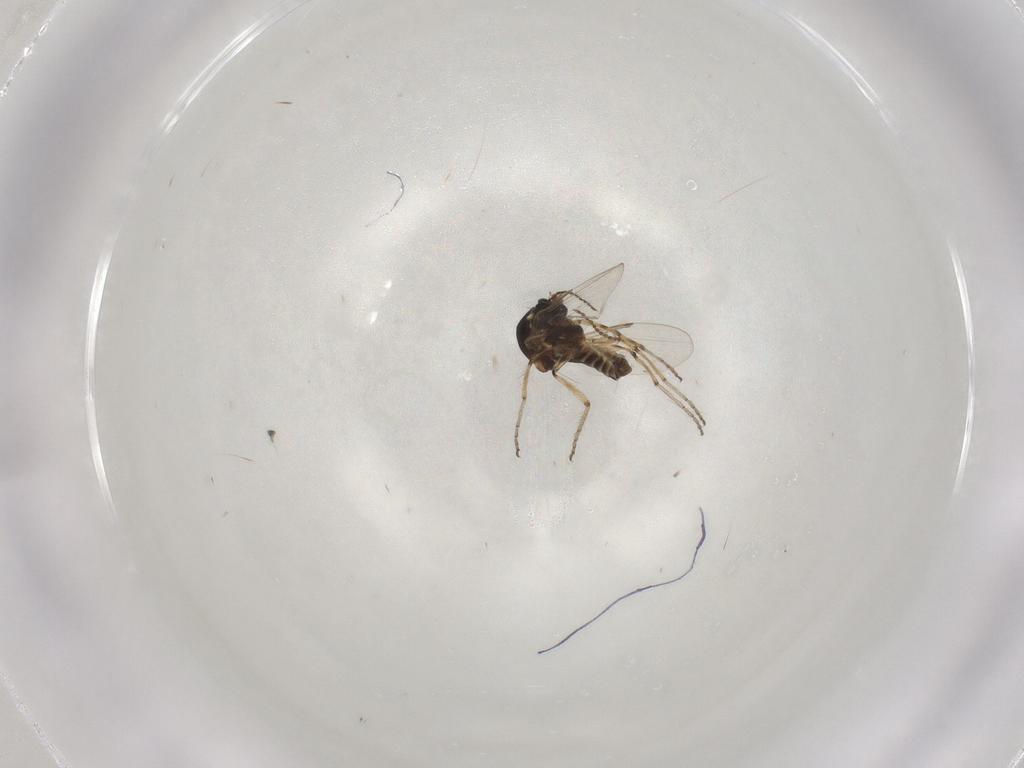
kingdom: Animalia
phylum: Arthropoda
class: Insecta
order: Diptera
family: Ceratopogonidae
